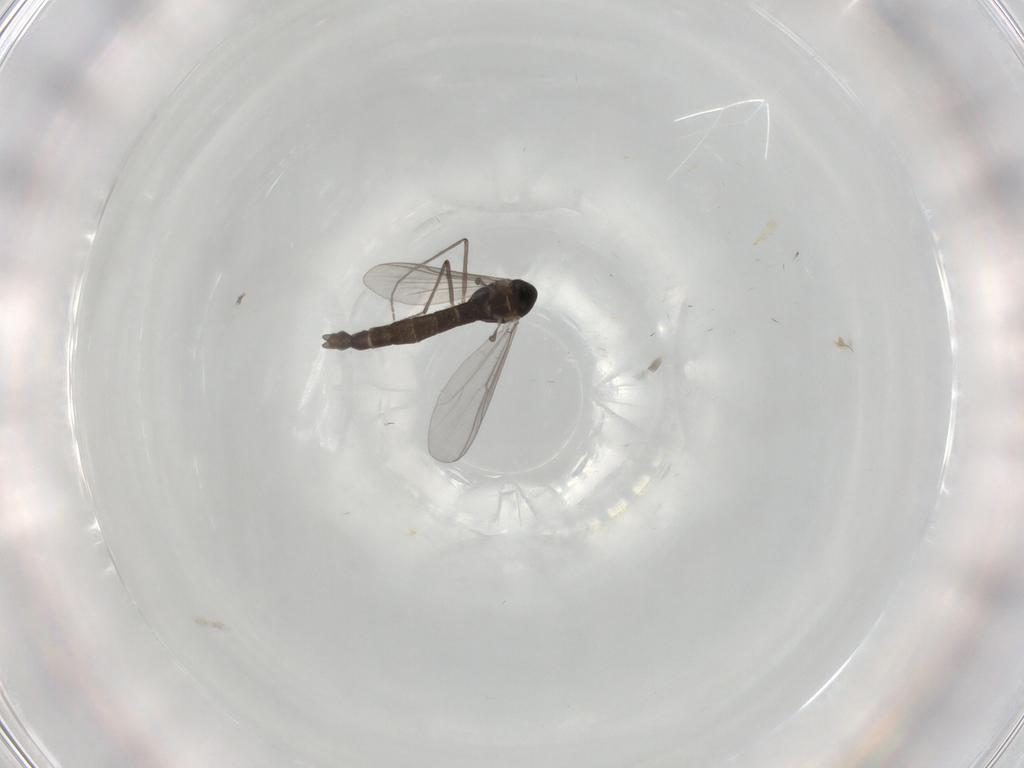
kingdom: Animalia
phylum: Arthropoda
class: Insecta
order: Diptera
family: Chironomidae
